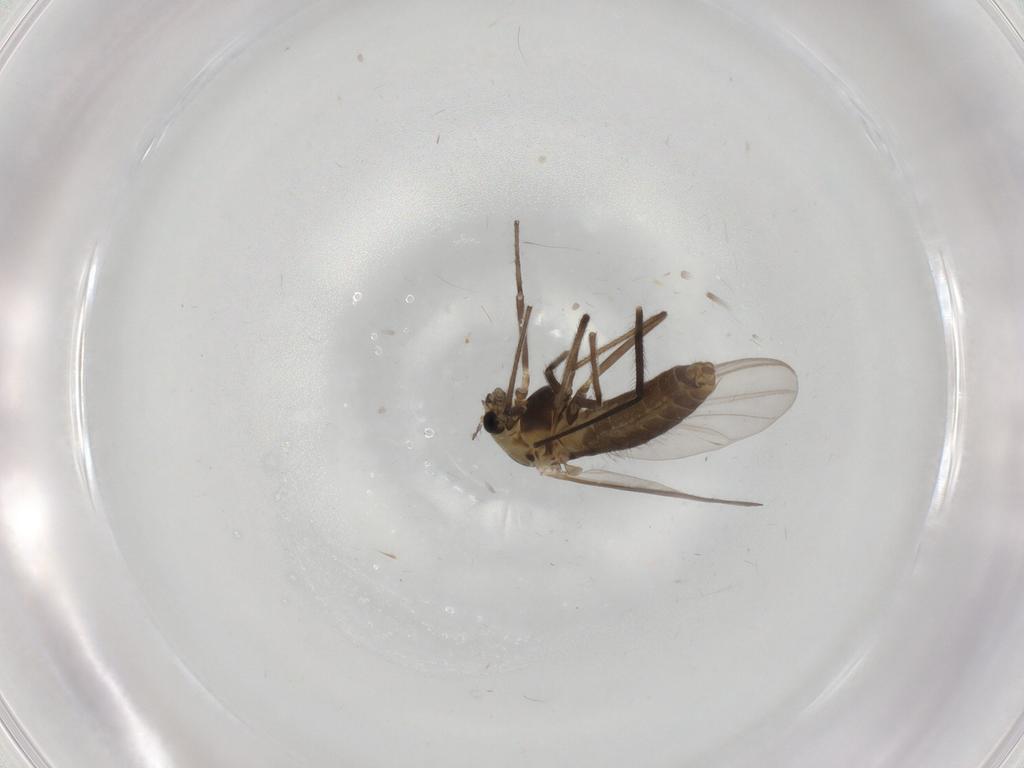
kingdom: Animalia
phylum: Arthropoda
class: Insecta
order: Diptera
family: Chironomidae
